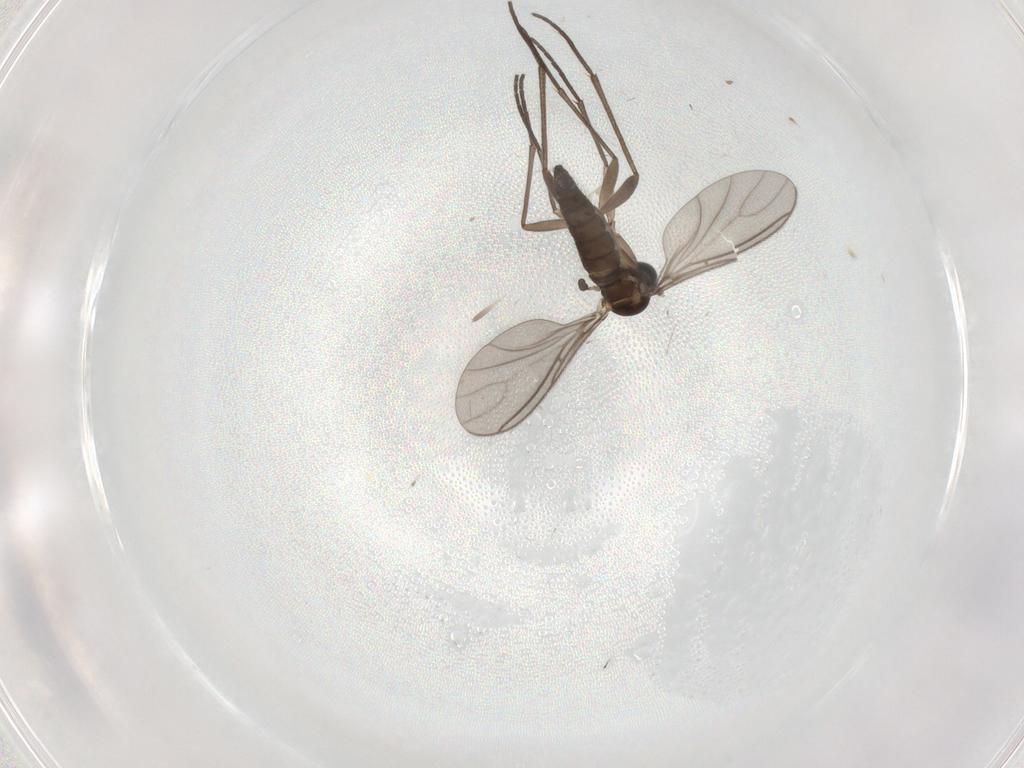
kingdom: Animalia
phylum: Arthropoda
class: Insecta
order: Diptera
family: Sciaridae
